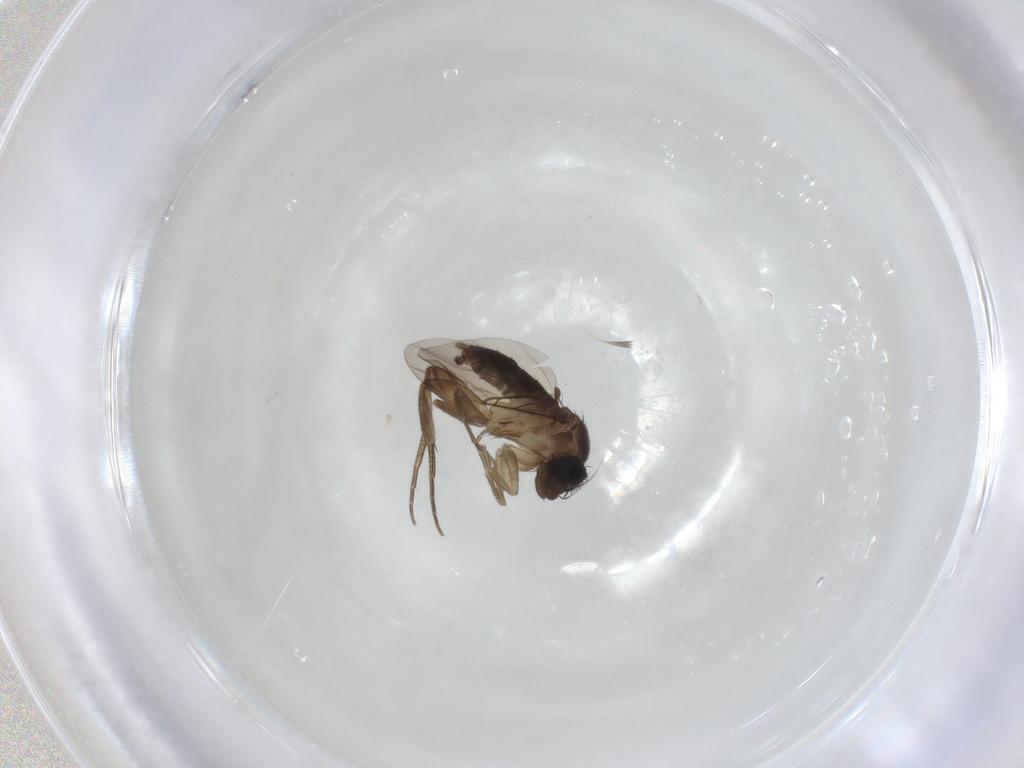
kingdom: Animalia
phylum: Arthropoda
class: Insecta
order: Diptera
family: Phoridae
